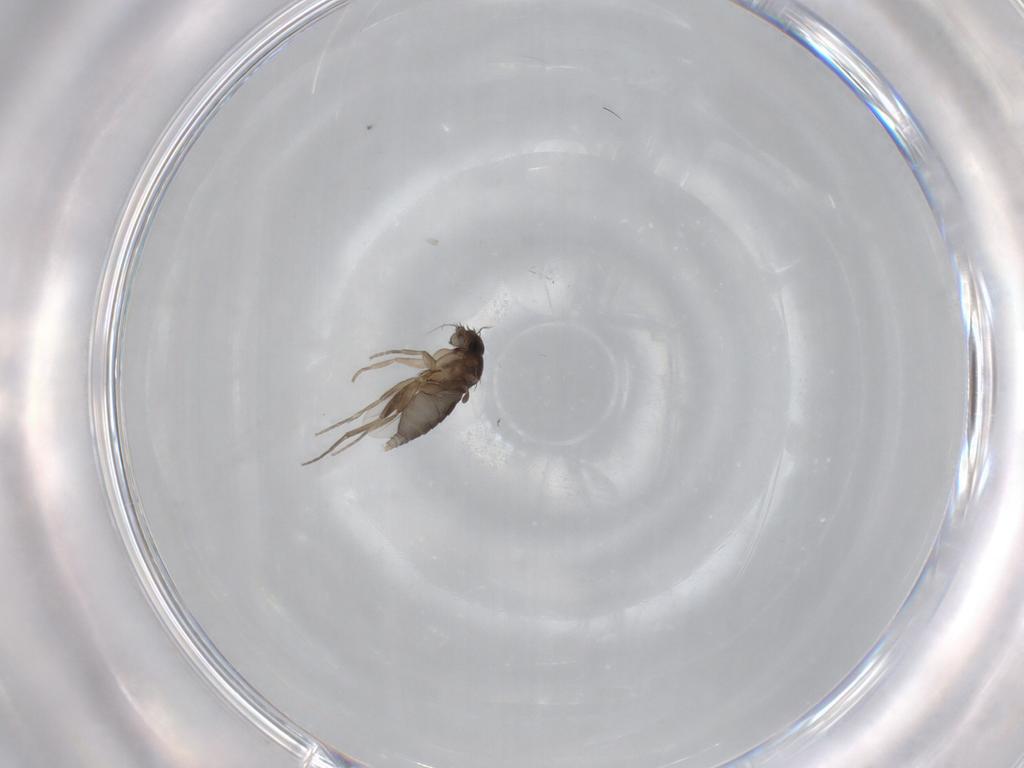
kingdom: Animalia
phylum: Arthropoda
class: Insecta
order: Diptera
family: Phoridae
